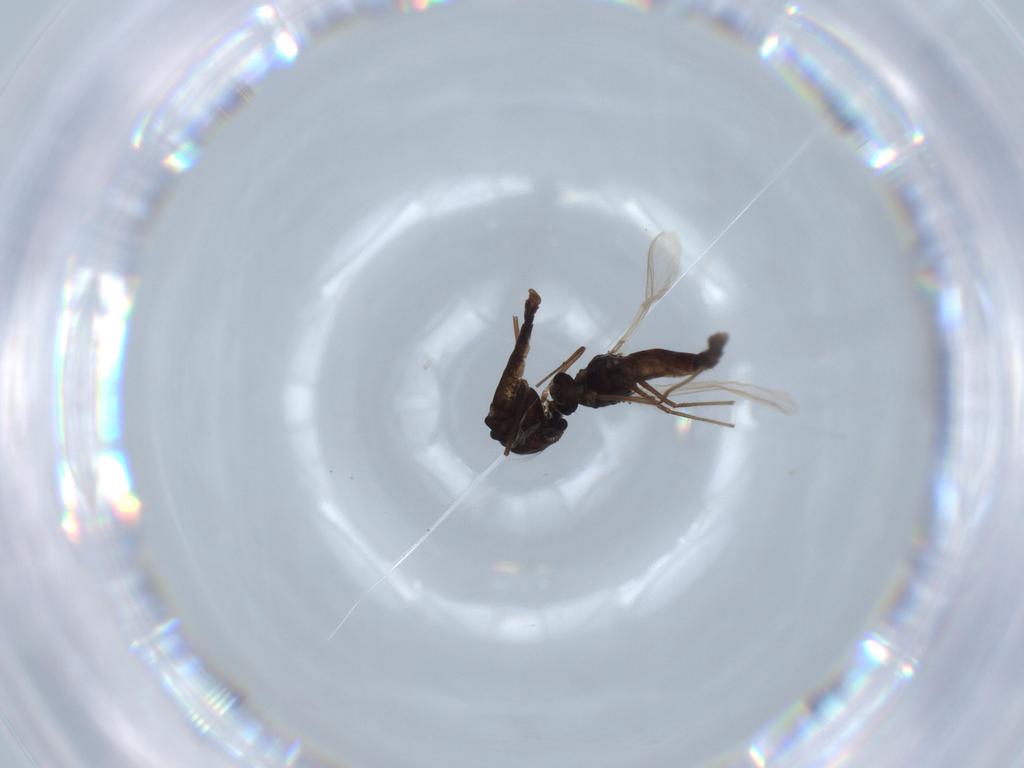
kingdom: Animalia
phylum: Arthropoda
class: Insecta
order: Diptera
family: Chironomidae
